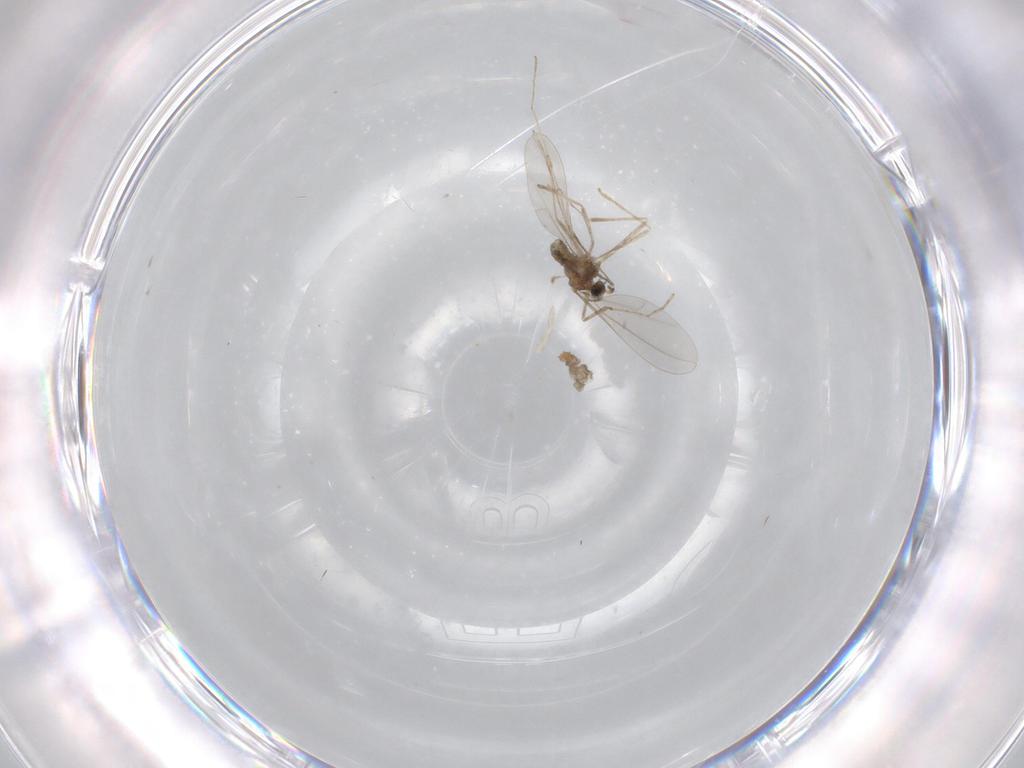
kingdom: Animalia
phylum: Arthropoda
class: Insecta
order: Diptera
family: Cecidomyiidae
